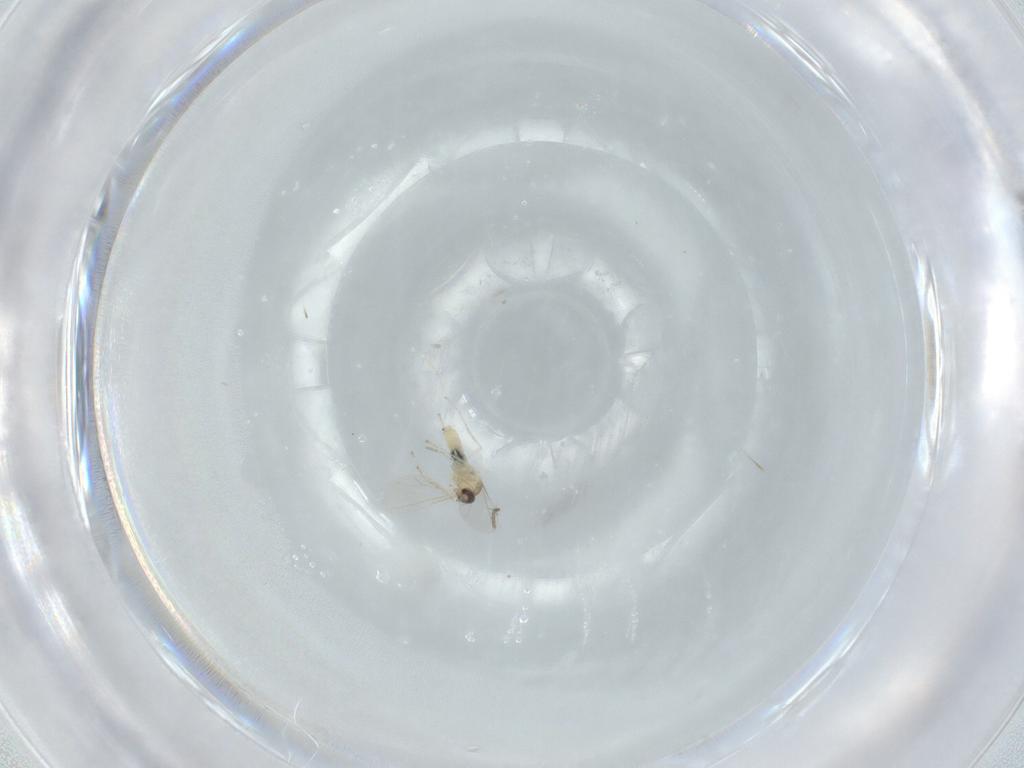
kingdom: Animalia
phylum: Arthropoda
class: Insecta
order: Diptera
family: Cecidomyiidae
